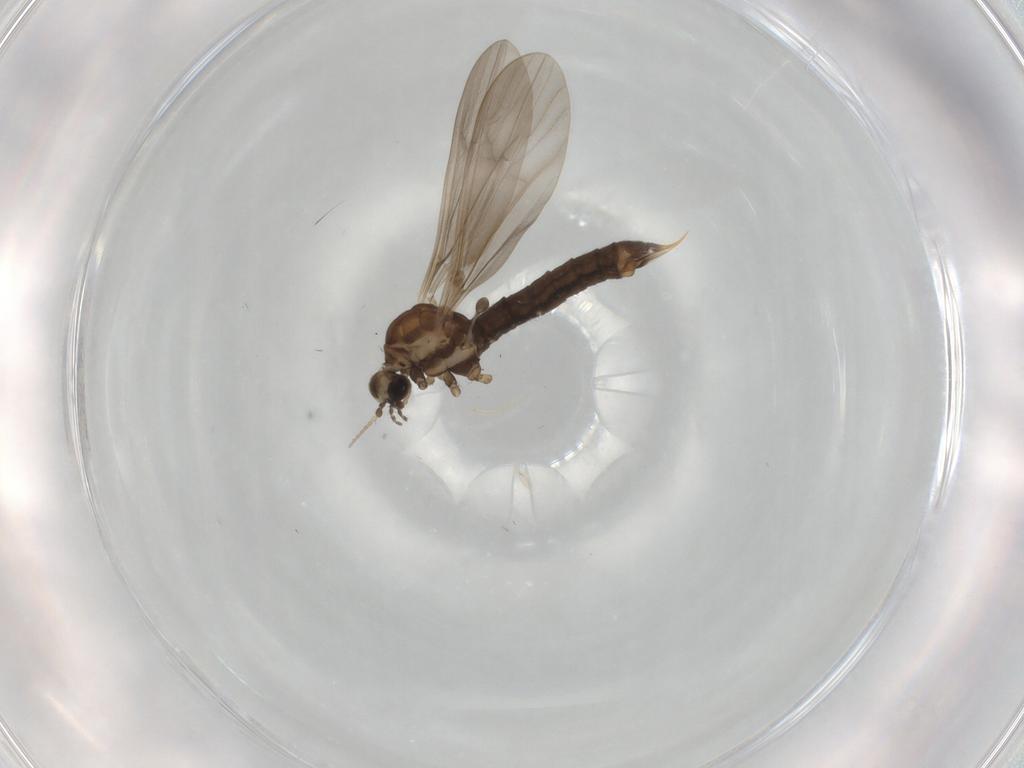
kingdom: Animalia
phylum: Arthropoda
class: Insecta
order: Diptera
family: Limoniidae
